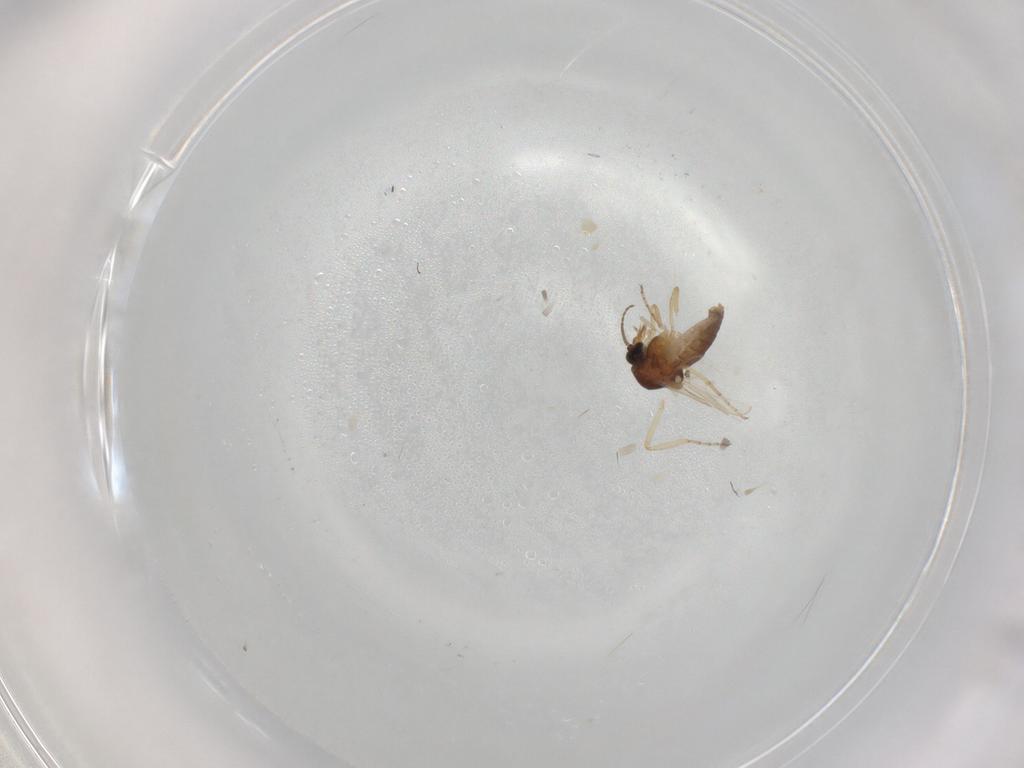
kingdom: Animalia
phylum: Arthropoda
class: Insecta
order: Diptera
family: Ceratopogonidae
